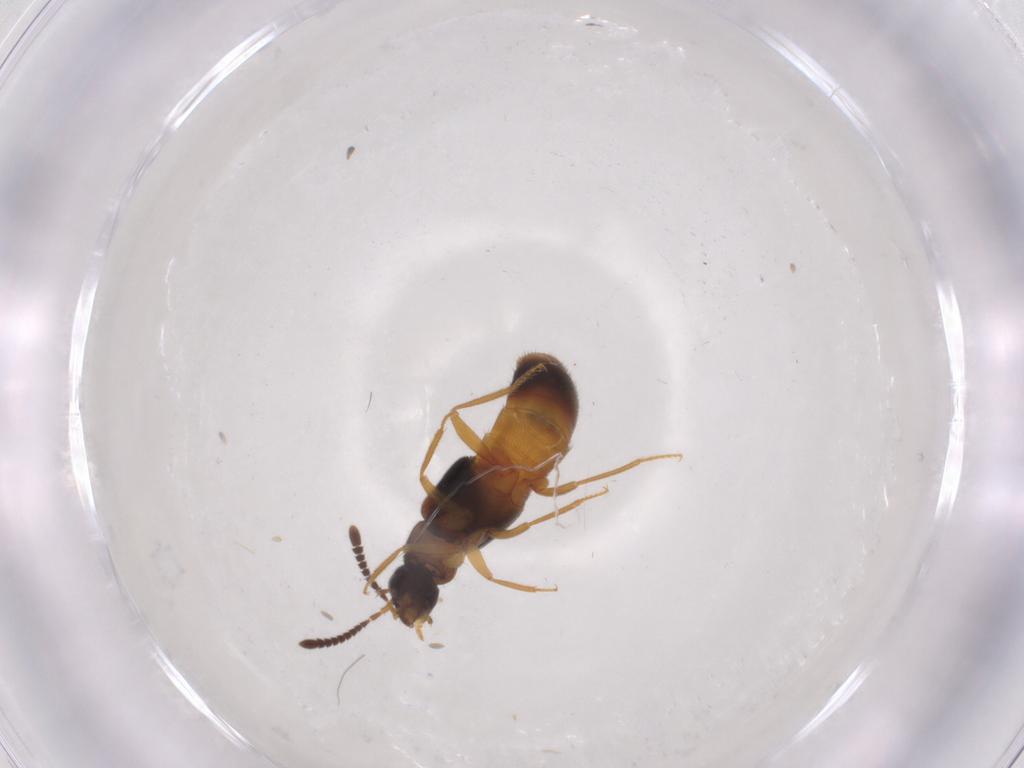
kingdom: Animalia
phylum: Arthropoda
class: Insecta
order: Coleoptera
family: Staphylinidae
